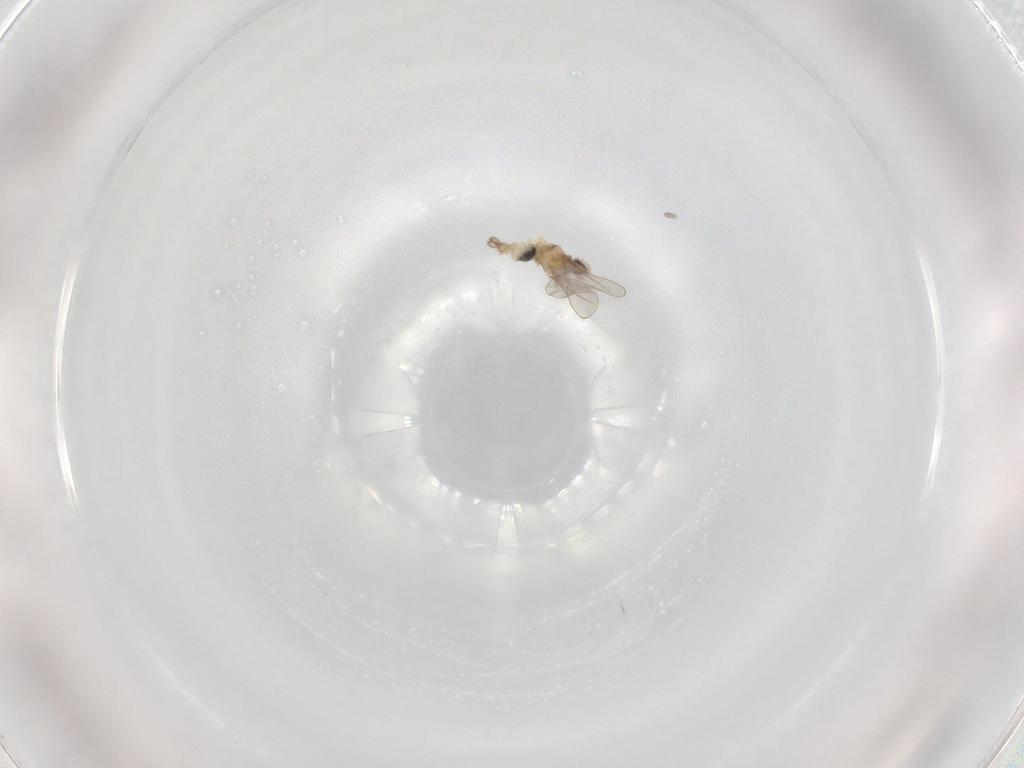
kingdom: Animalia
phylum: Arthropoda
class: Insecta
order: Diptera
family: Cecidomyiidae
